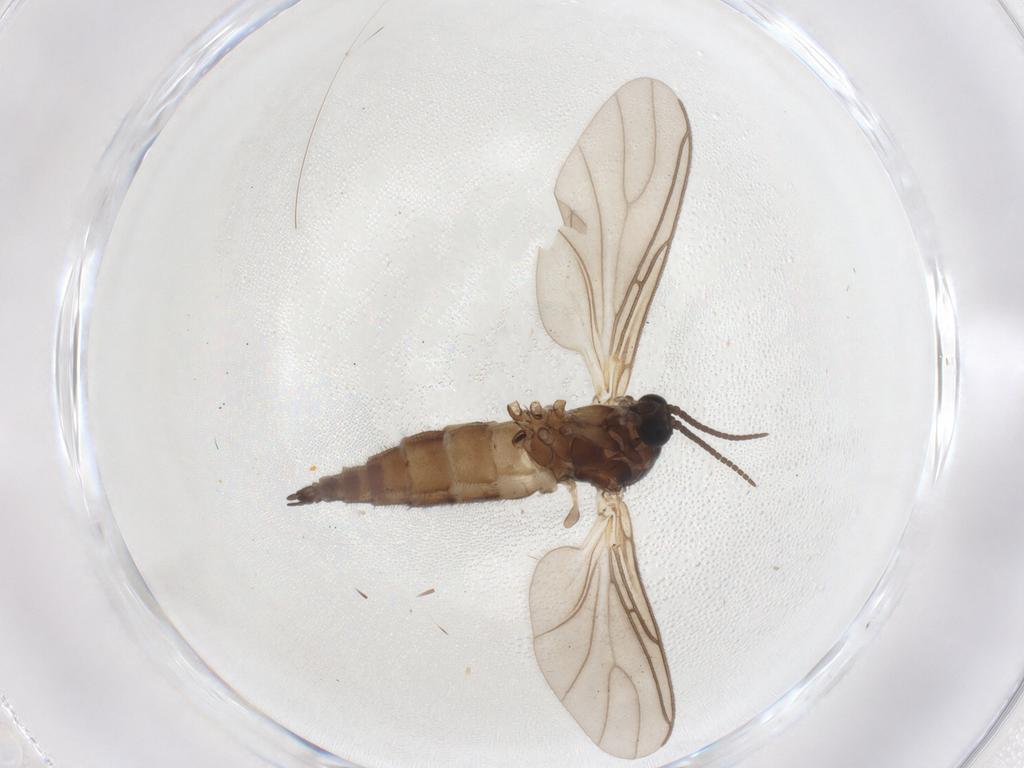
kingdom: Animalia
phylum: Arthropoda
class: Insecta
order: Diptera
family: Sciaridae
